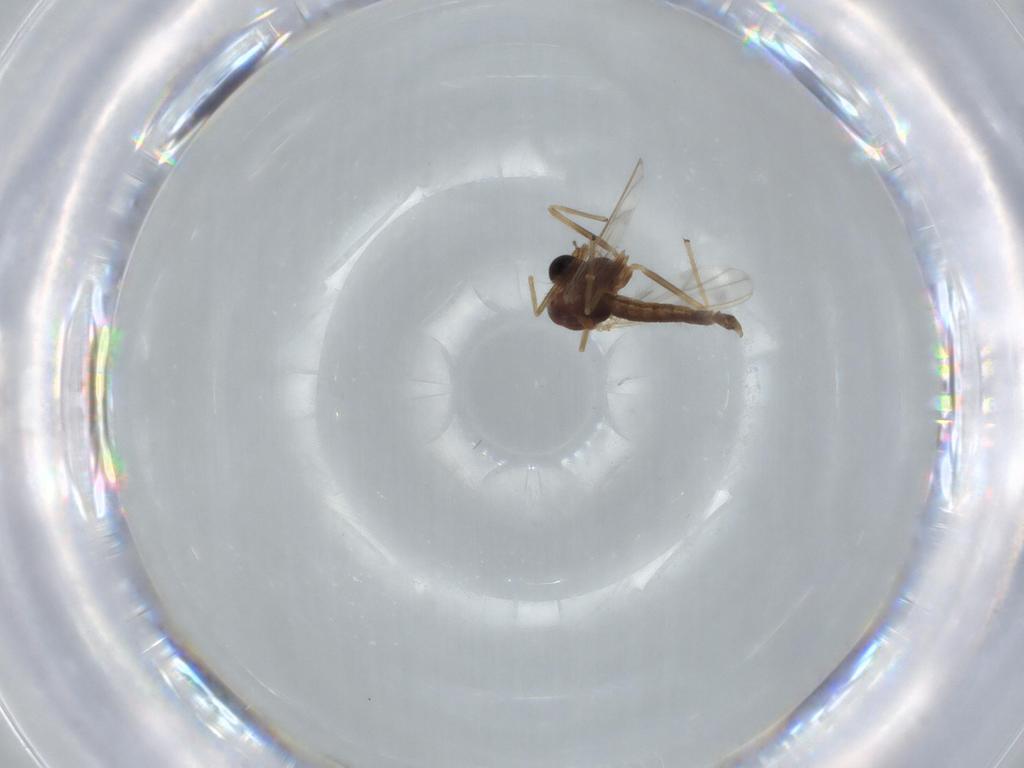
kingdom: Animalia
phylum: Arthropoda
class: Insecta
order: Diptera
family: Chironomidae
